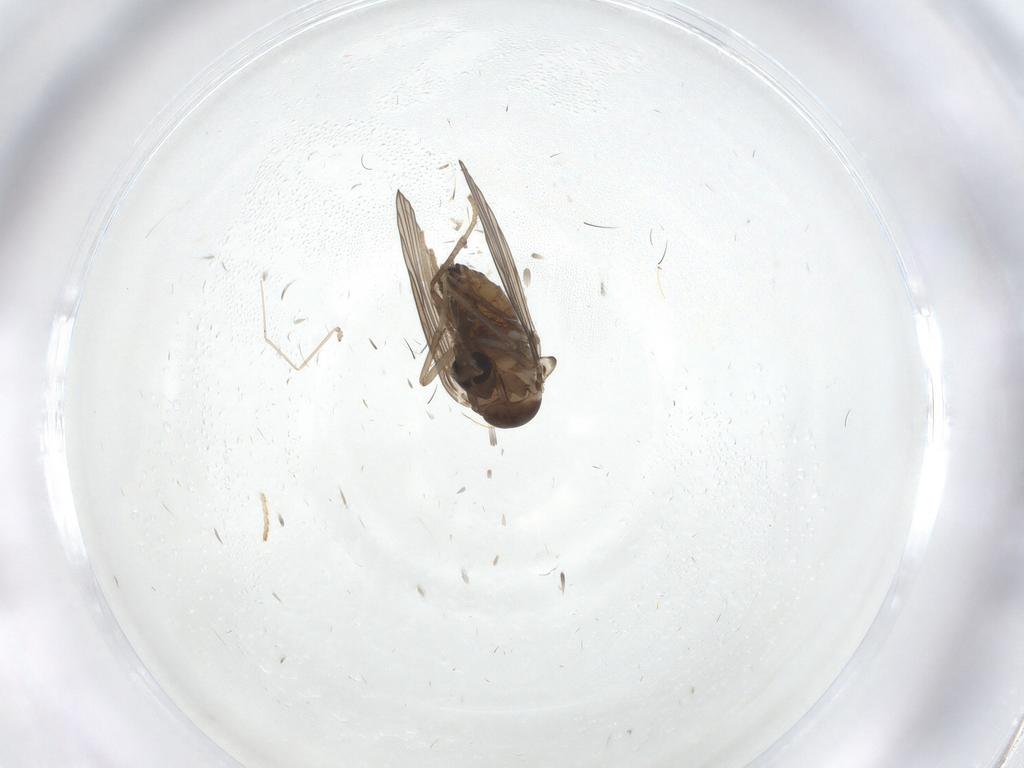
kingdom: Animalia
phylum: Arthropoda
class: Insecta
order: Diptera
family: Psychodidae
